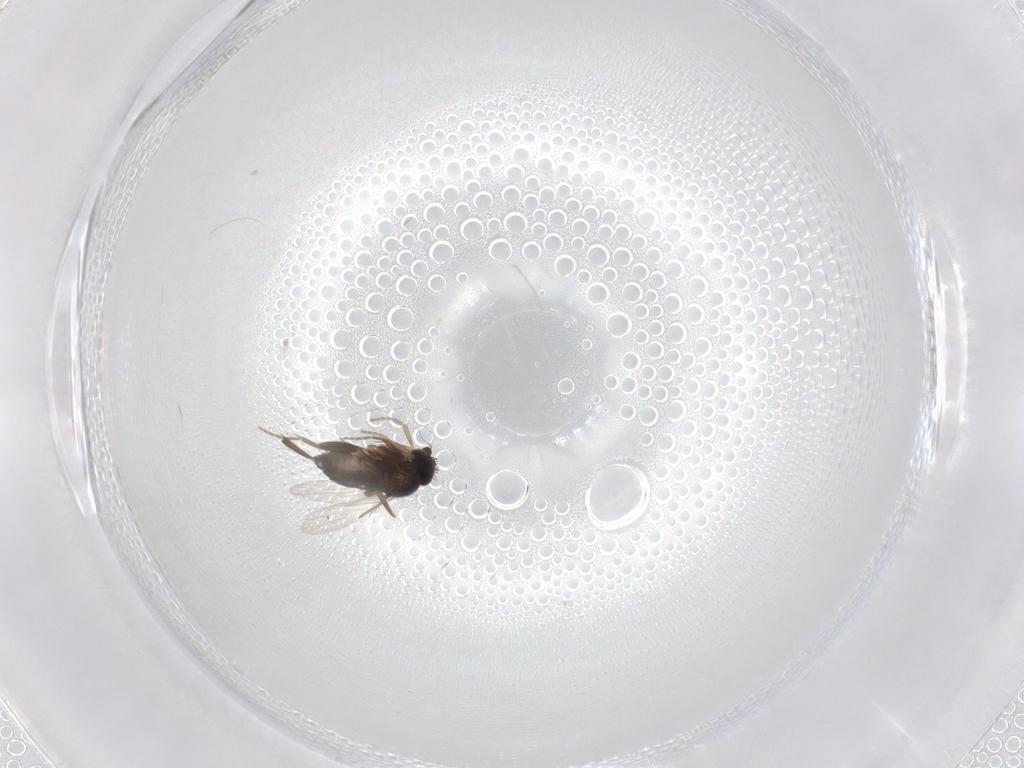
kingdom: Animalia
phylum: Arthropoda
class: Insecta
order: Diptera
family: Phoridae
